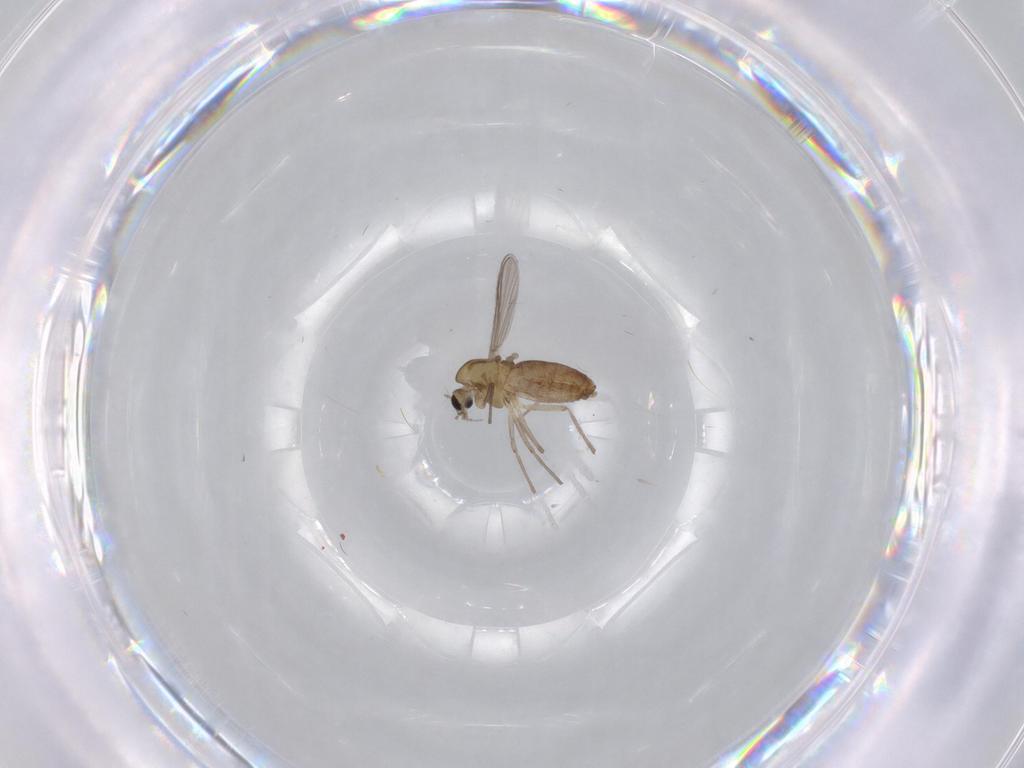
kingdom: Animalia
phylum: Arthropoda
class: Insecta
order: Diptera
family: Chironomidae
